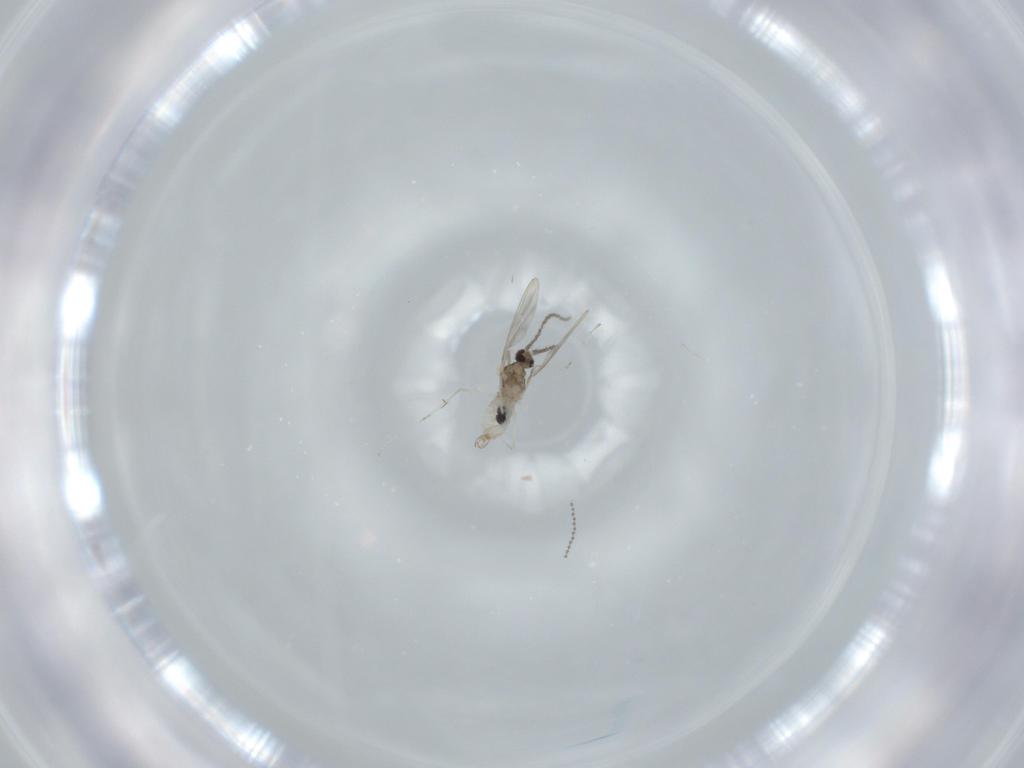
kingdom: Animalia
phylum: Arthropoda
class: Insecta
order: Diptera
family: Cecidomyiidae
